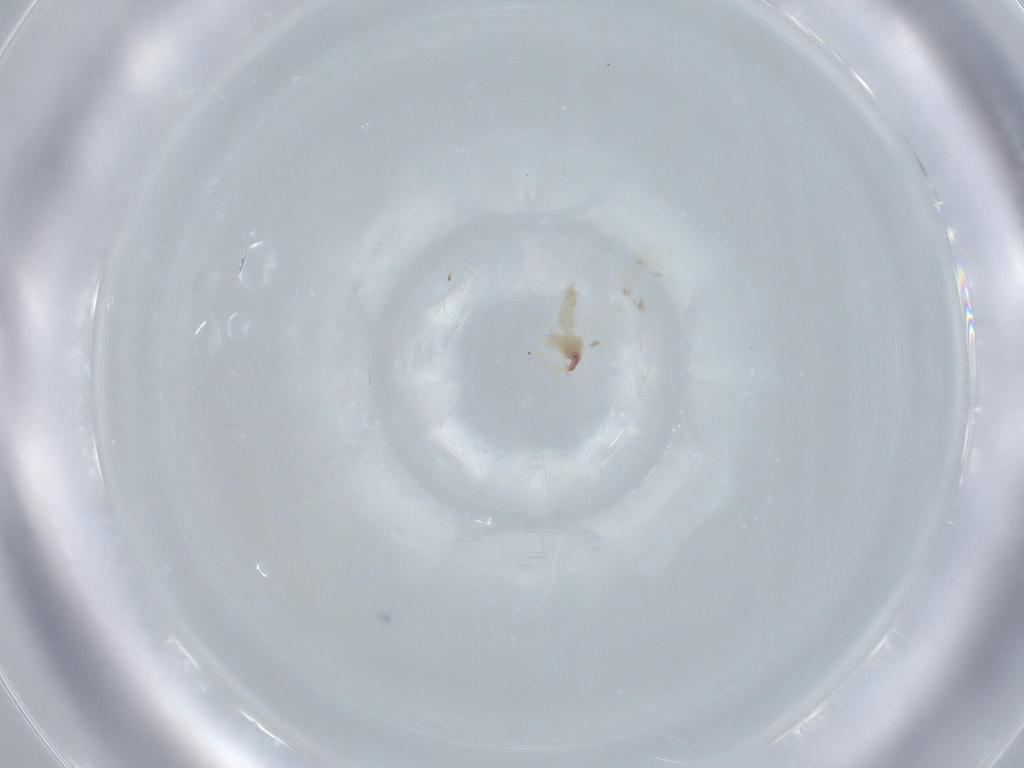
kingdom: Animalia
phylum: Arthropoda
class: Insecta
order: Hemiptera
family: Aleyrodidae
